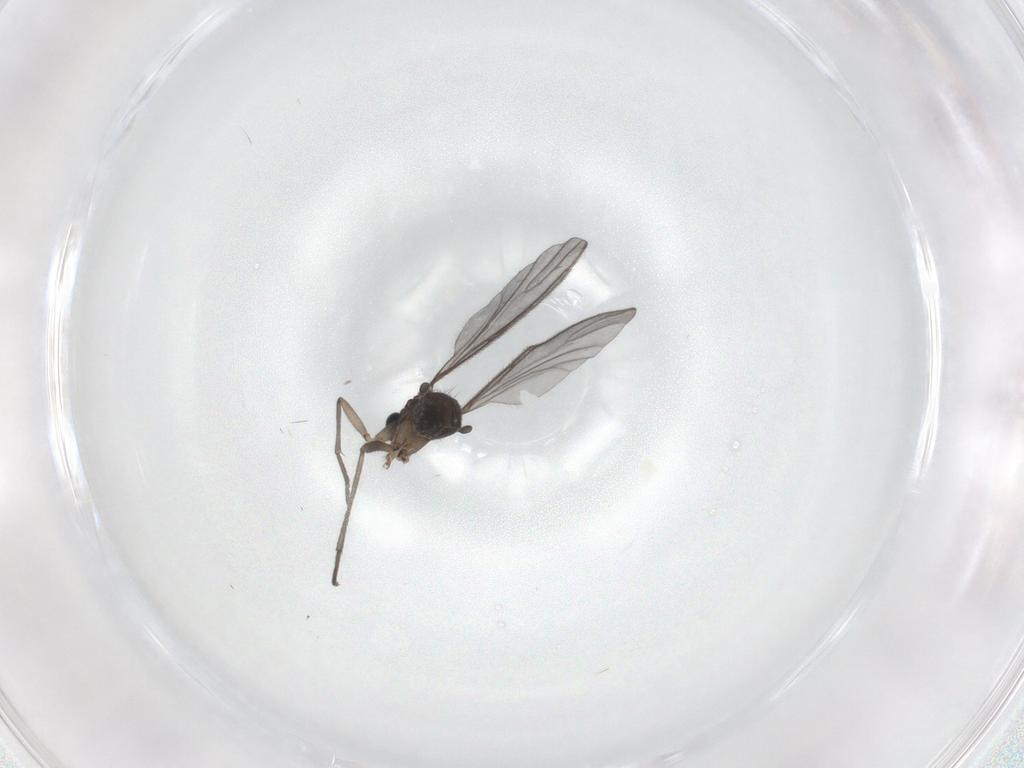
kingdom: Animalia
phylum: Arthropoda
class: Insecta
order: Diptera
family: Sciaridae
